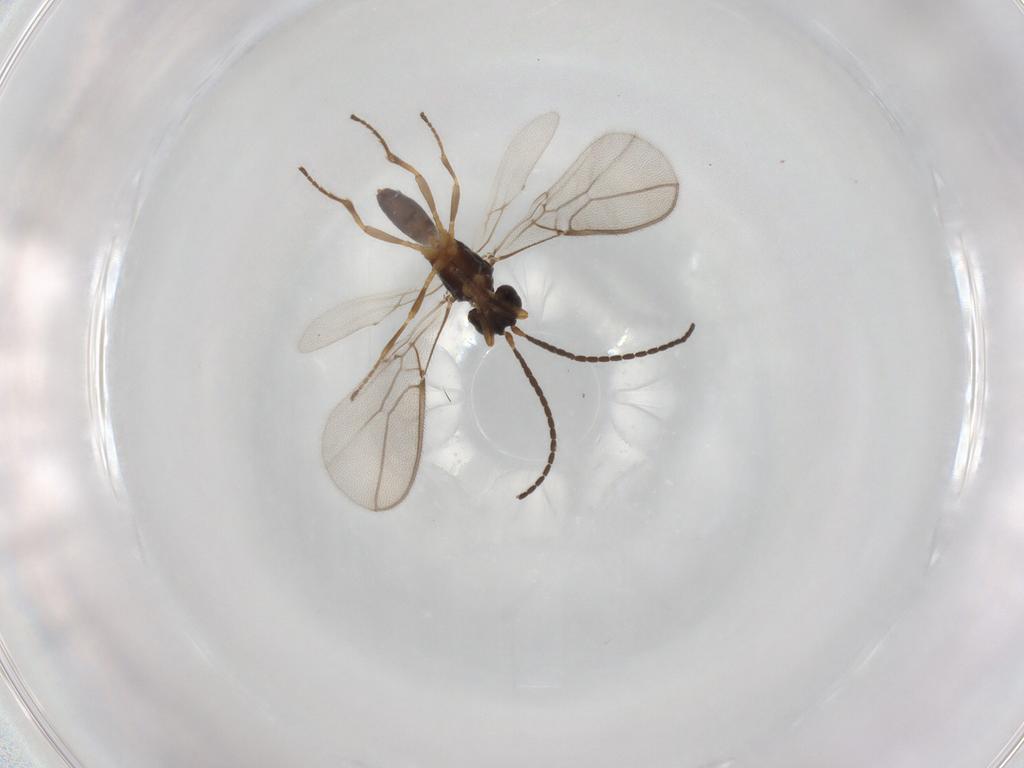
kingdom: Animalia
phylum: Arthropoda
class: Insecta
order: Hymenoptera
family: Braconidae
